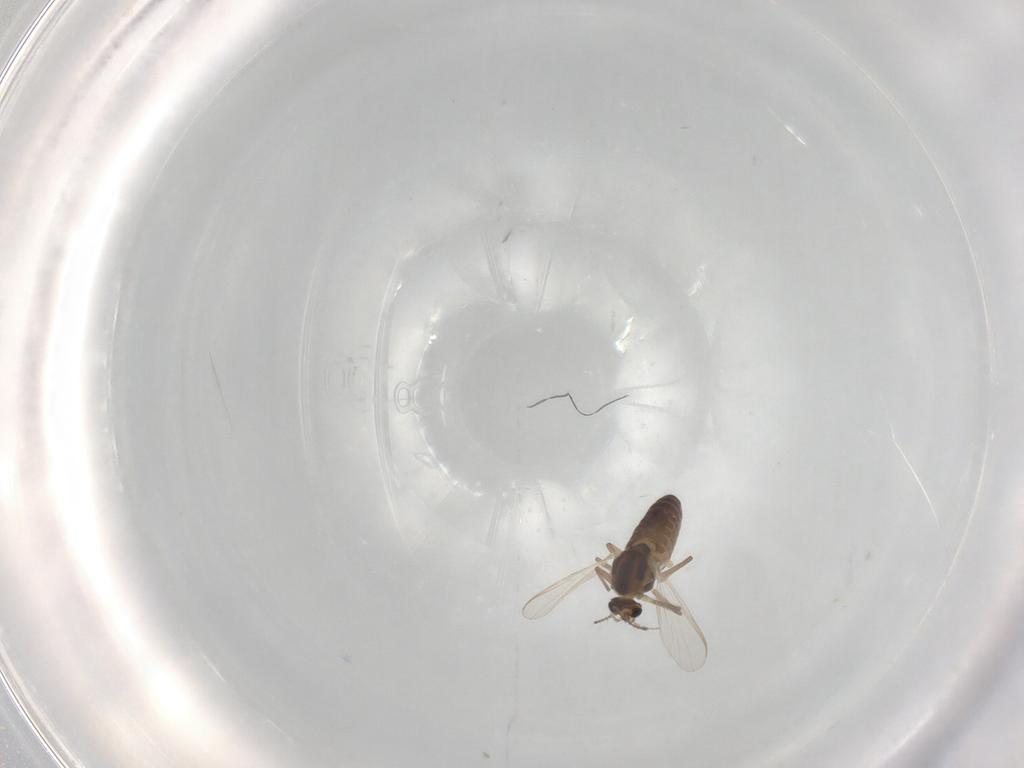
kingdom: Animalia
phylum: Arthropoda
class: Insecta
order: Diptera
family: Chironomidae
